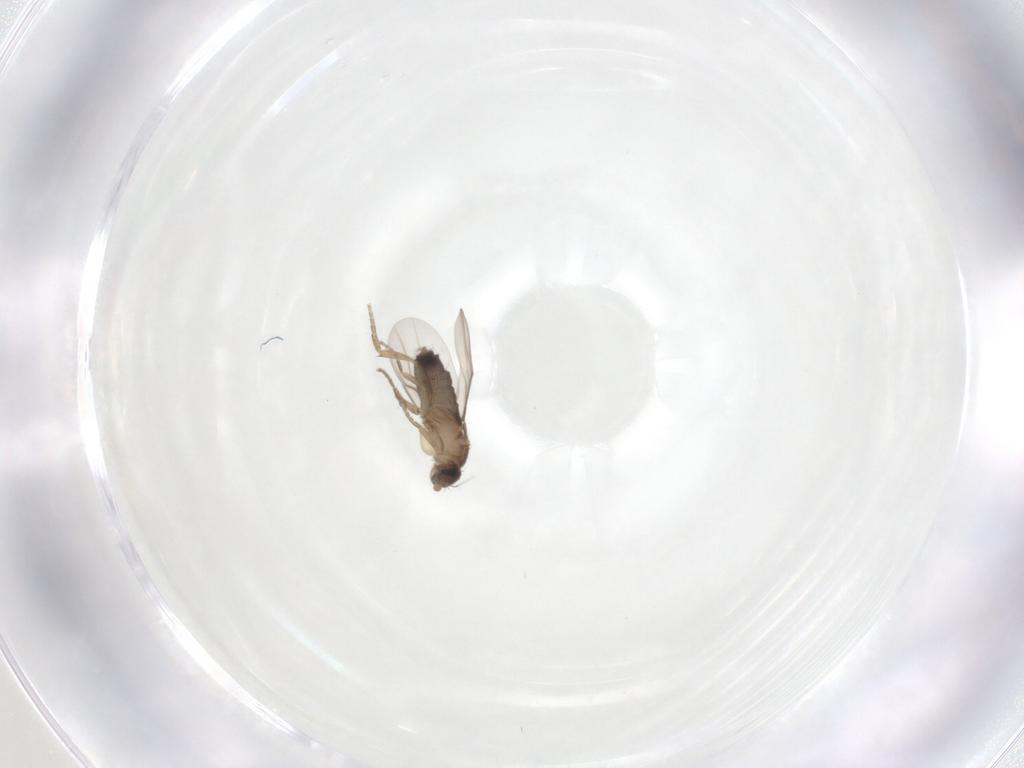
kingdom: Animalia
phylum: Arthropoda
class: Insecta
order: Diptera
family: Phoridae
